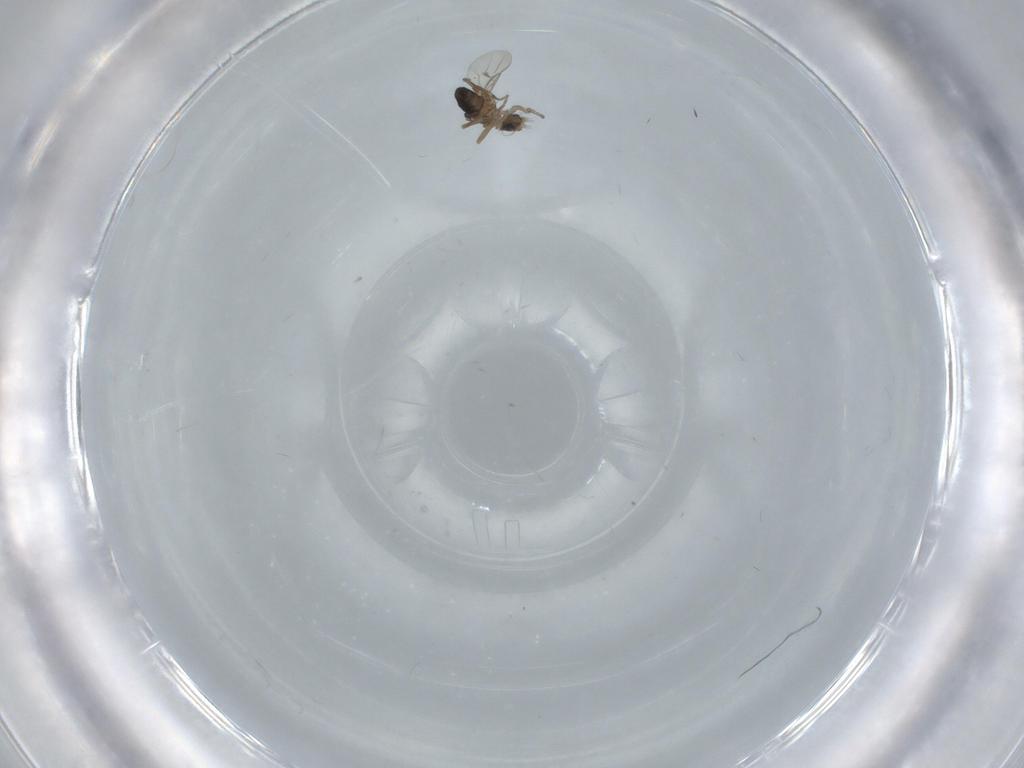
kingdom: Animalia
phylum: Arthropoda
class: Insecta
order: Diptera
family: Phoridae
